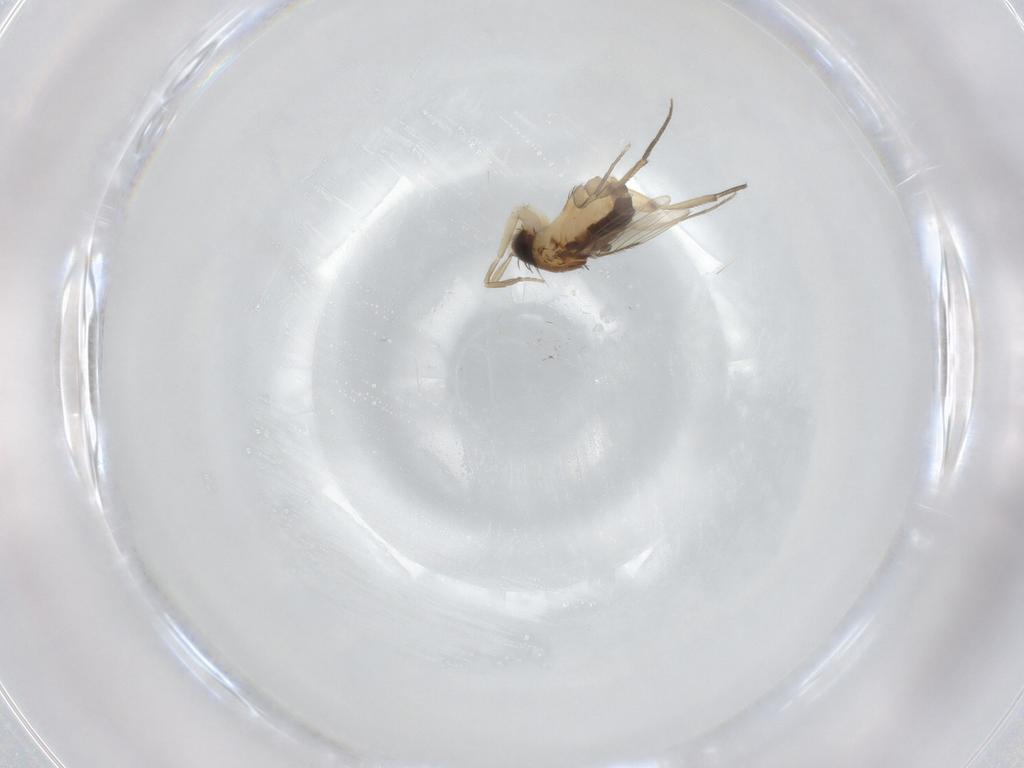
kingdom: Animalia
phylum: Arthropoda
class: Insecta
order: Diptera
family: Phoridae
